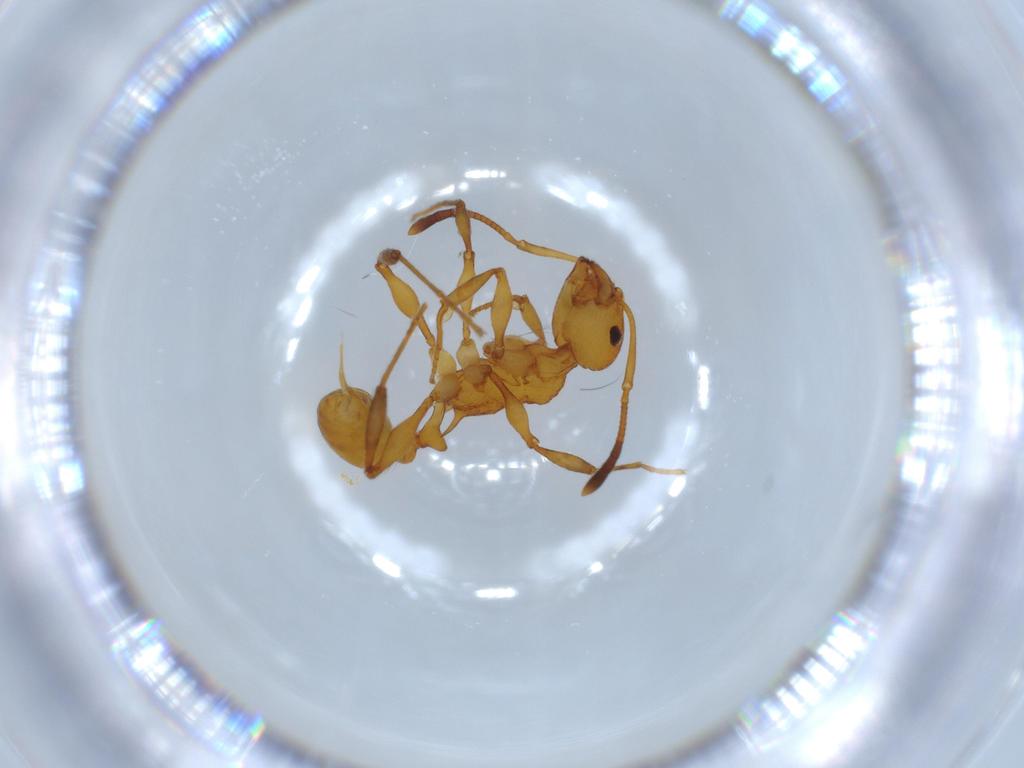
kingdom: Animalia
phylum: Arthropoda
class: Insecta
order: Hymenoptera
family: Formicidae
